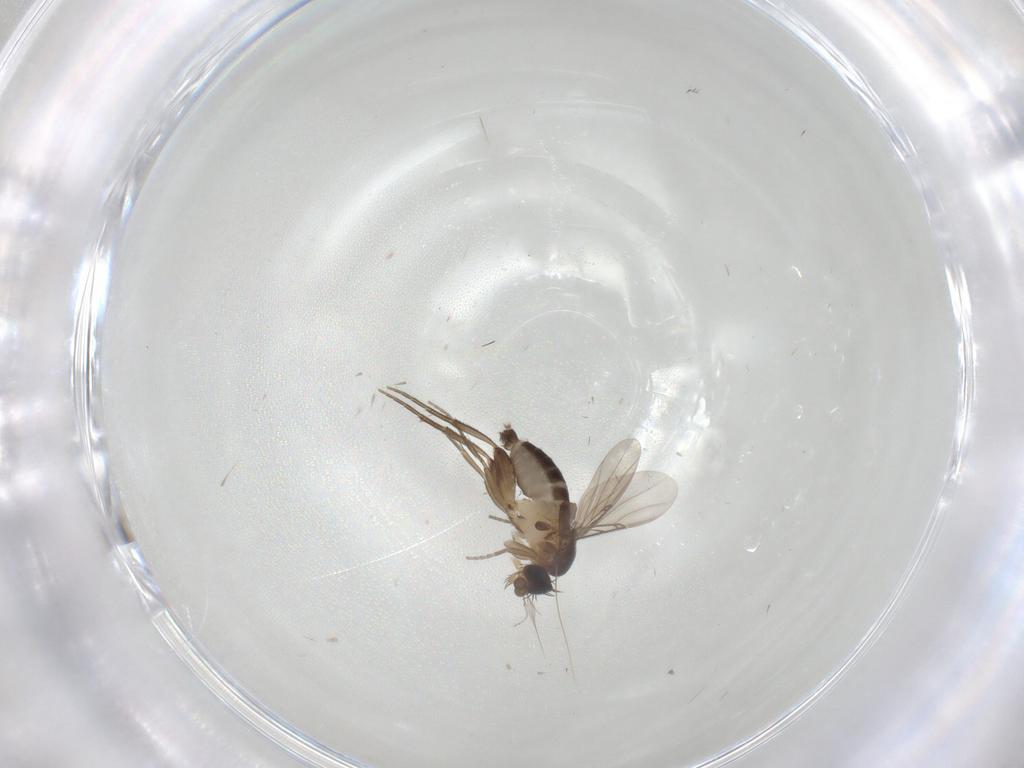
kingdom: Animalia
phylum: Arthropoda
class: Insecta
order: Diptera
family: Phoridae
